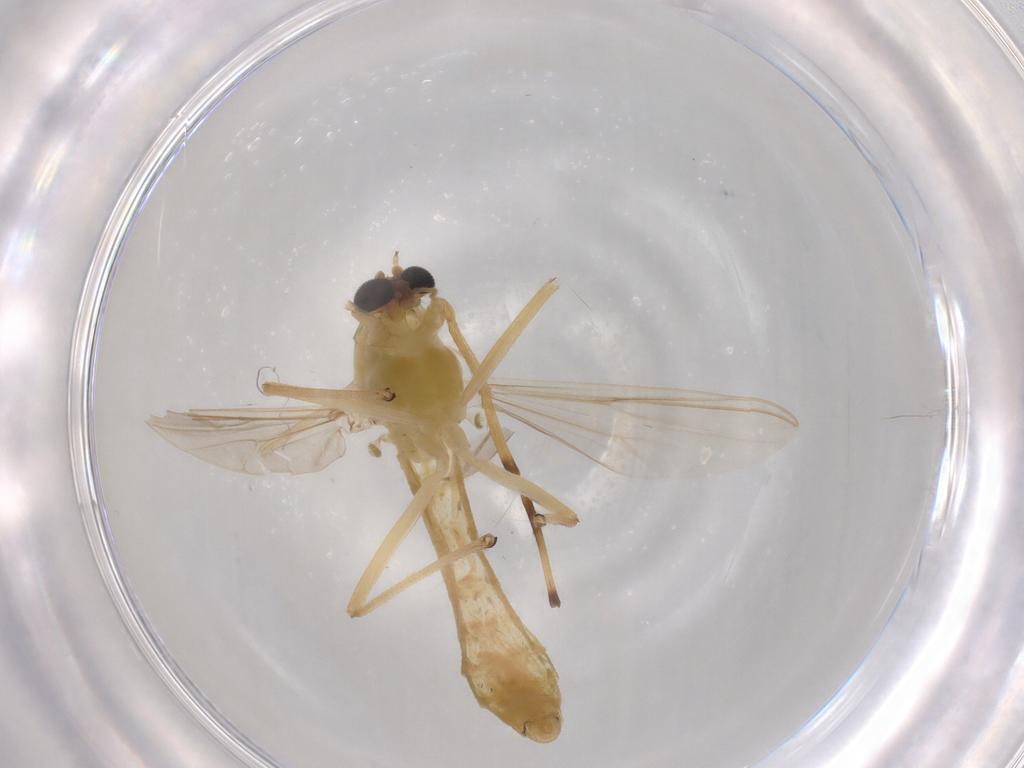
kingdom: Animalia
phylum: Arthropoda
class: Insecta
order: Diptera
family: Chironomidae
